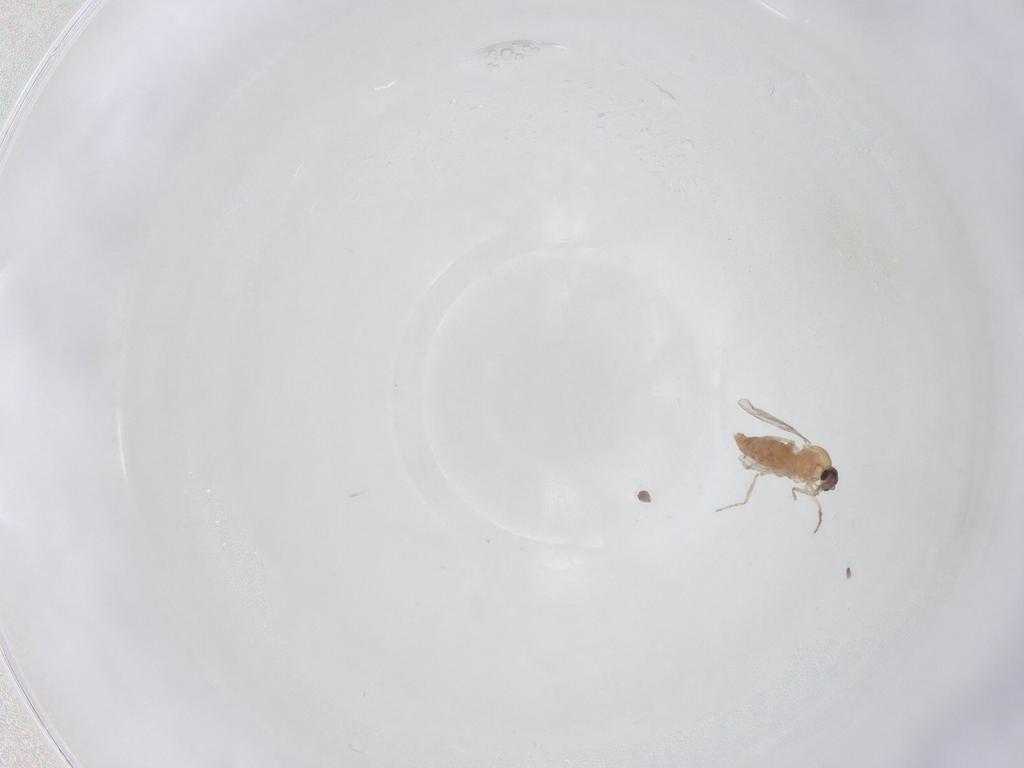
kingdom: Animalia
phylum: Arthropoda
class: Insecta
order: Diptera
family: Ceratopogonidae
